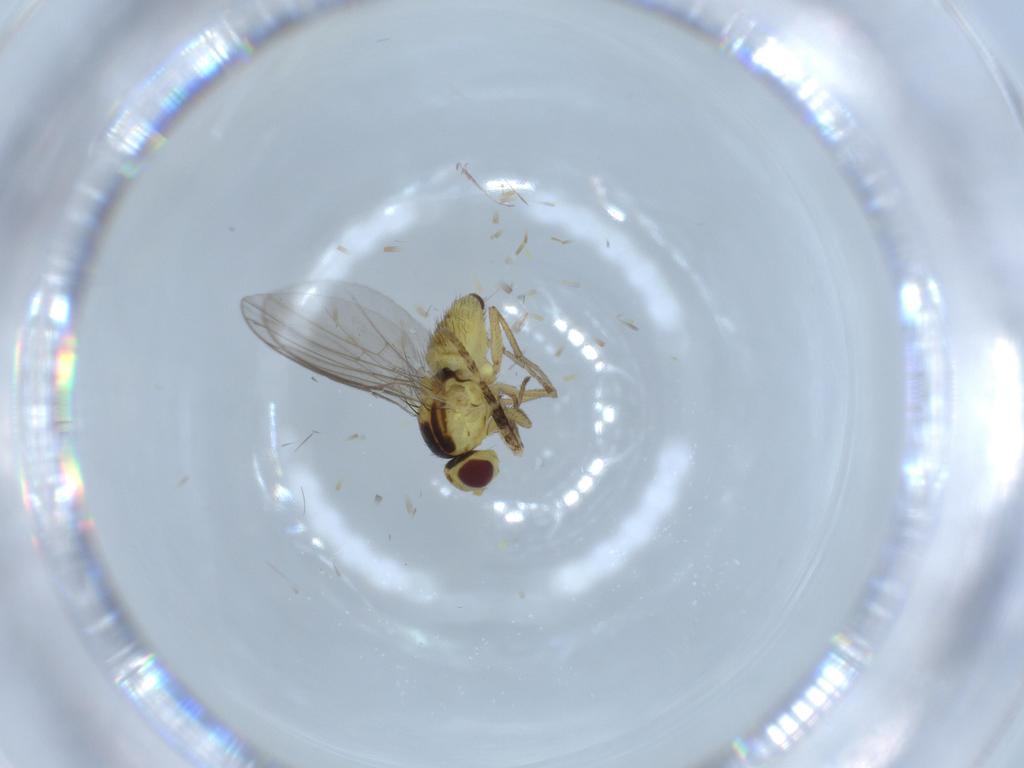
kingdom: Animalia
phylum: Arthropoda
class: Insecta
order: Diptera
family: Agromyzidae
